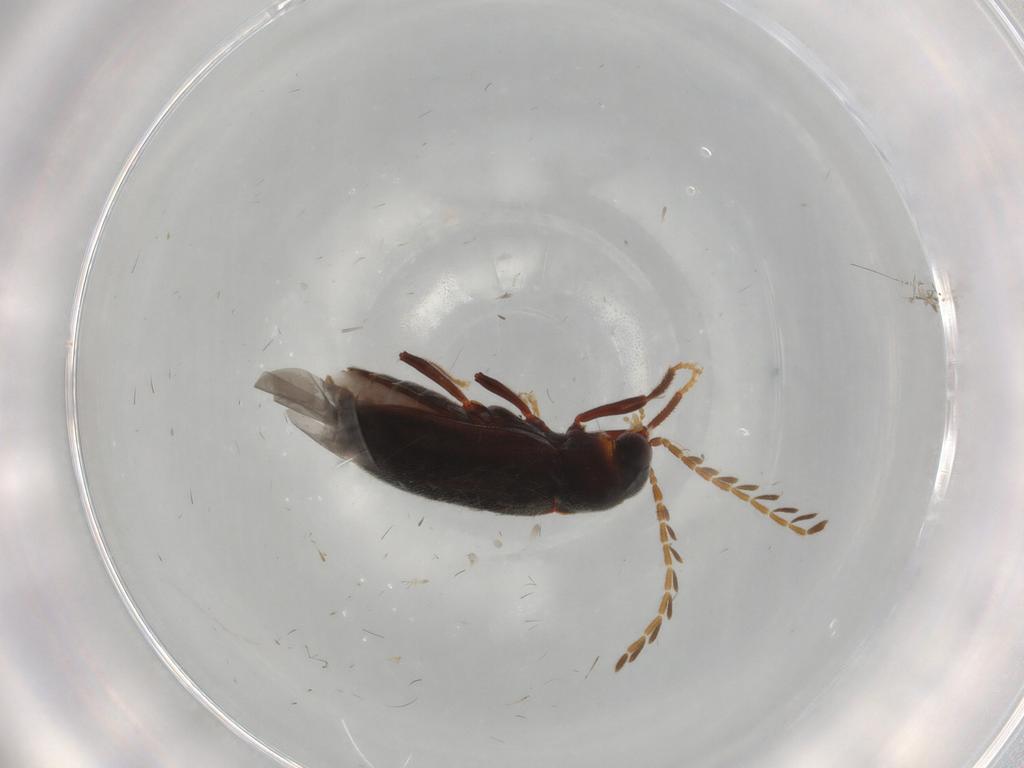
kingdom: Animalia
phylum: Arthropoda
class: Insecta
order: Coleoptera
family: Ptilodactylidae
